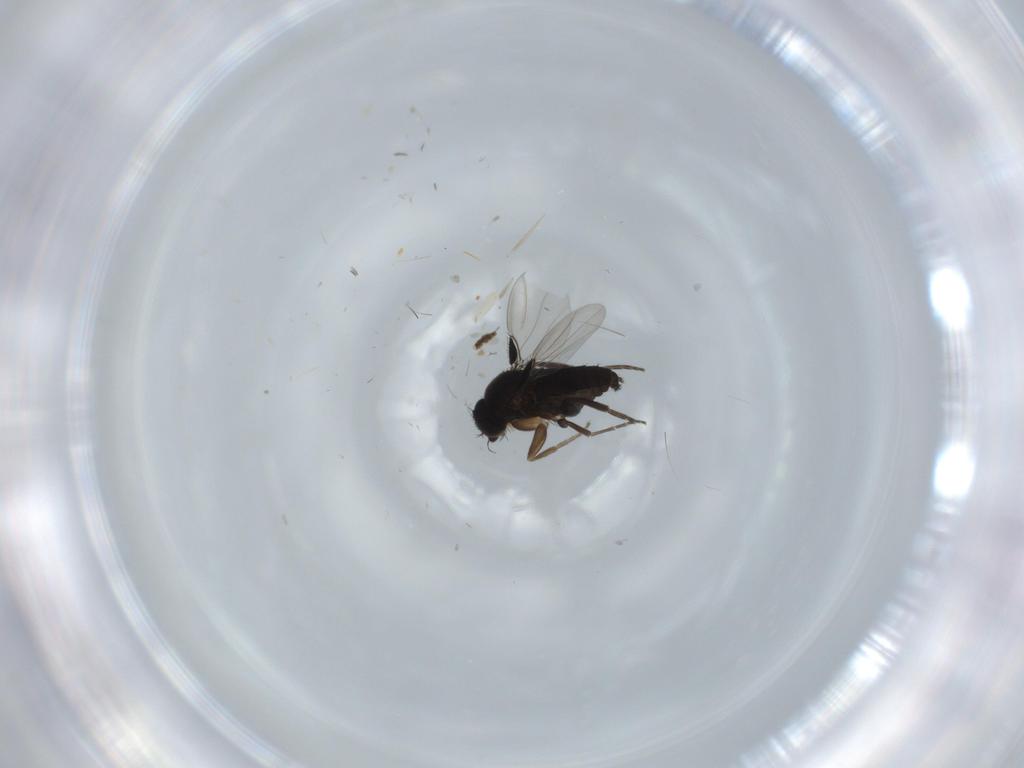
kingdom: Animalia
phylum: Arthropoda
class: Insecta
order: Diptera
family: Phoridae
